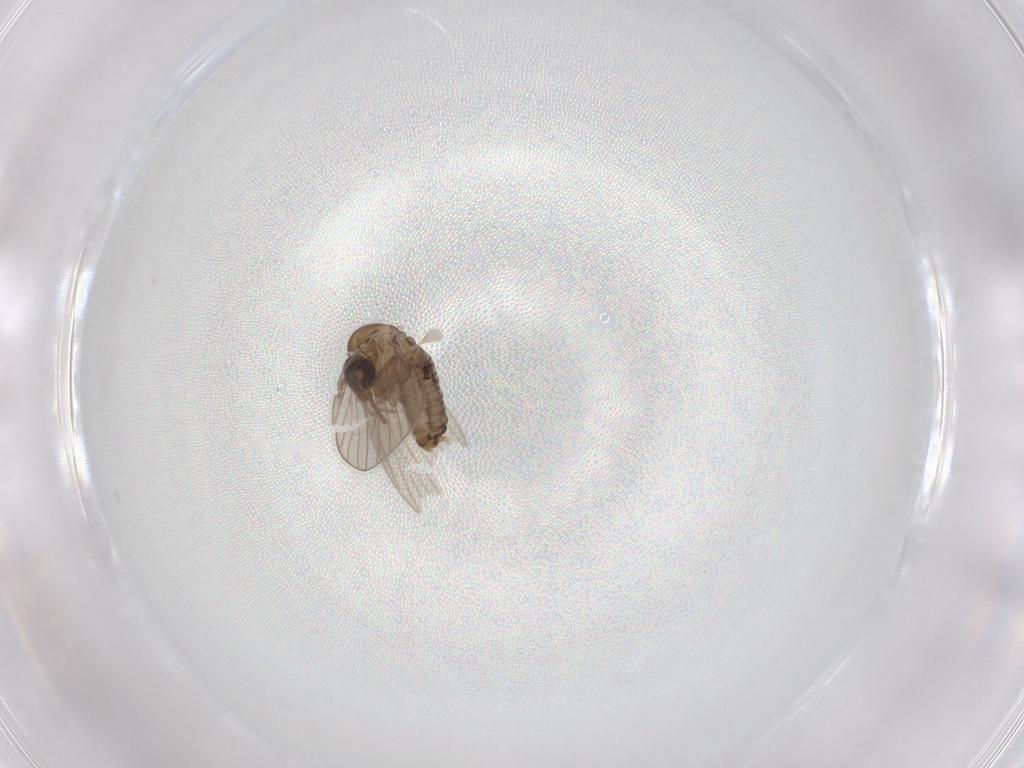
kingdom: Animalia
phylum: Arthropoda
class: Insecta
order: Diptera
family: Psychodidae
